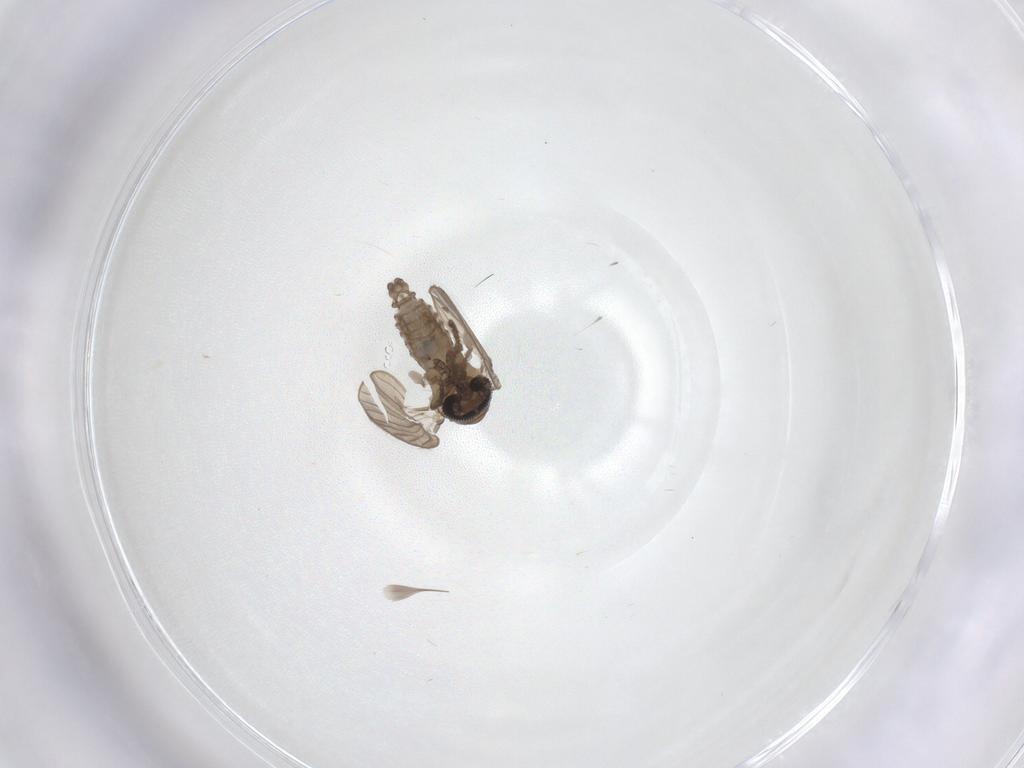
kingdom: Animalia
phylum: Arthropoda
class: Insecta
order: Diptera
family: Psychodidae
